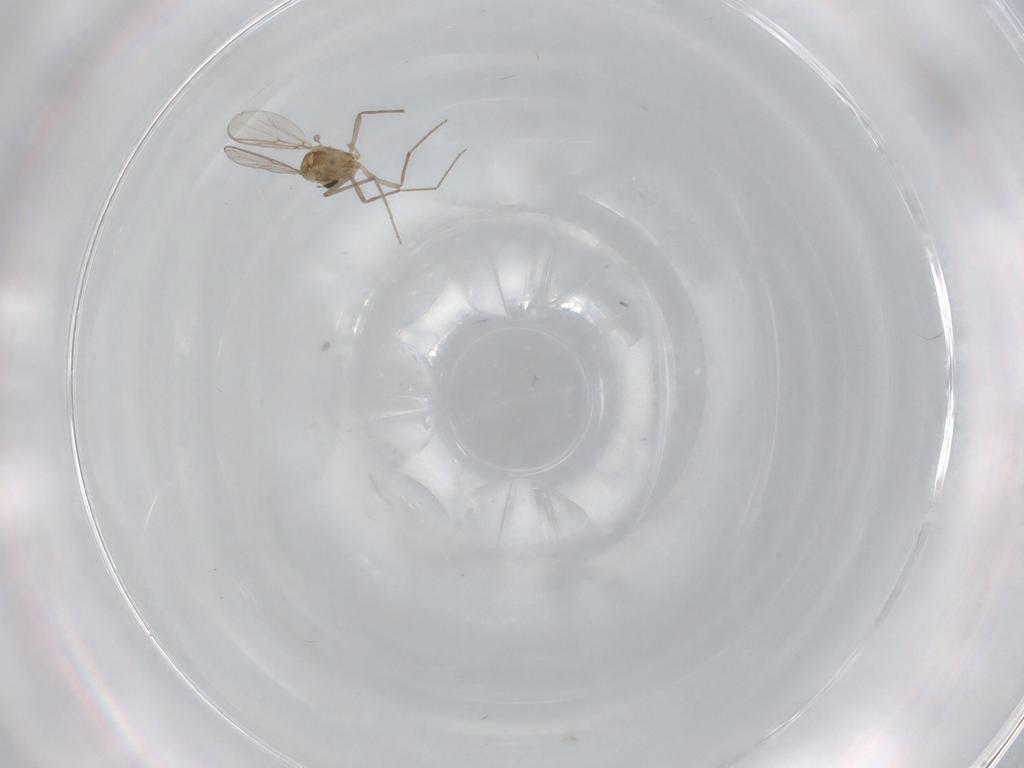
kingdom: Animalia
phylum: Arthropoda
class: Insecta
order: Diptera
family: Chironomidae
